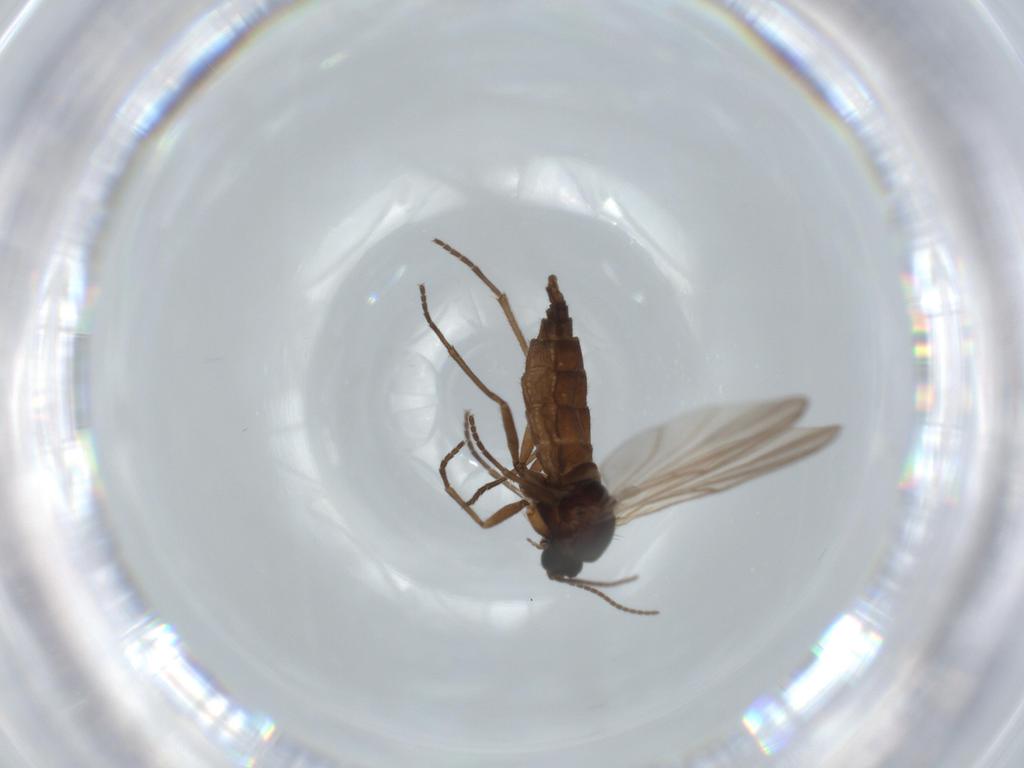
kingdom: Animalia
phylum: Arthropoda
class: Insecta
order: Diptera
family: Sciaridae
